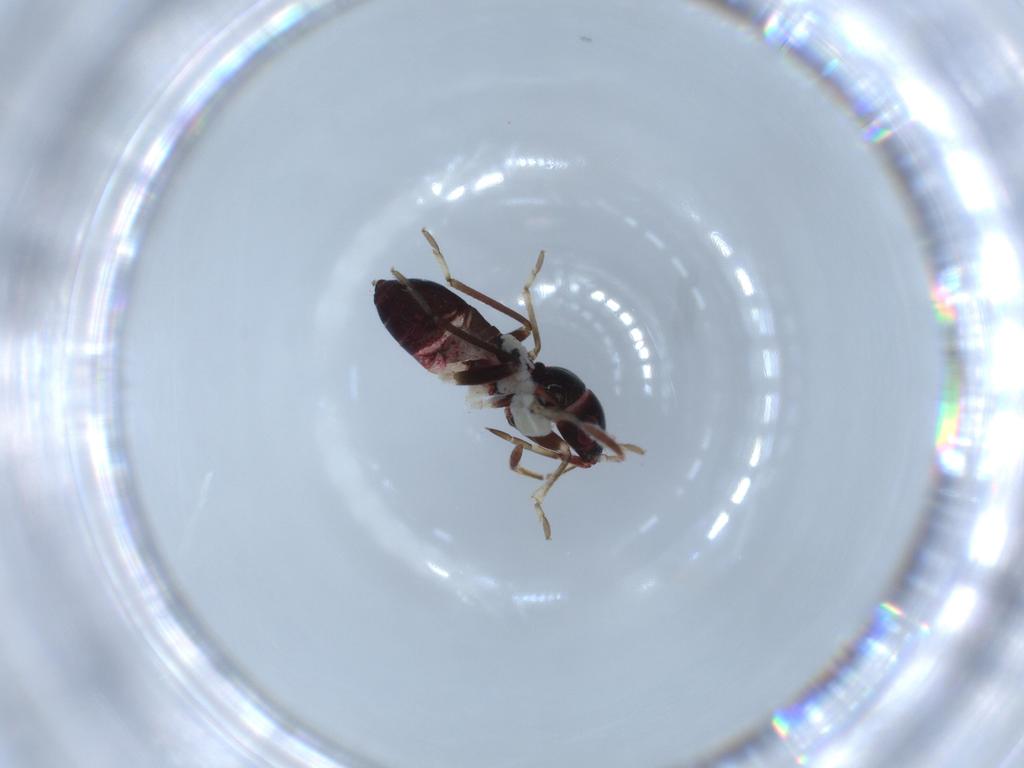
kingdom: Animalia
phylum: Arthropoda
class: Insecta
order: Hemiptera
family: Rhyparochromidae
